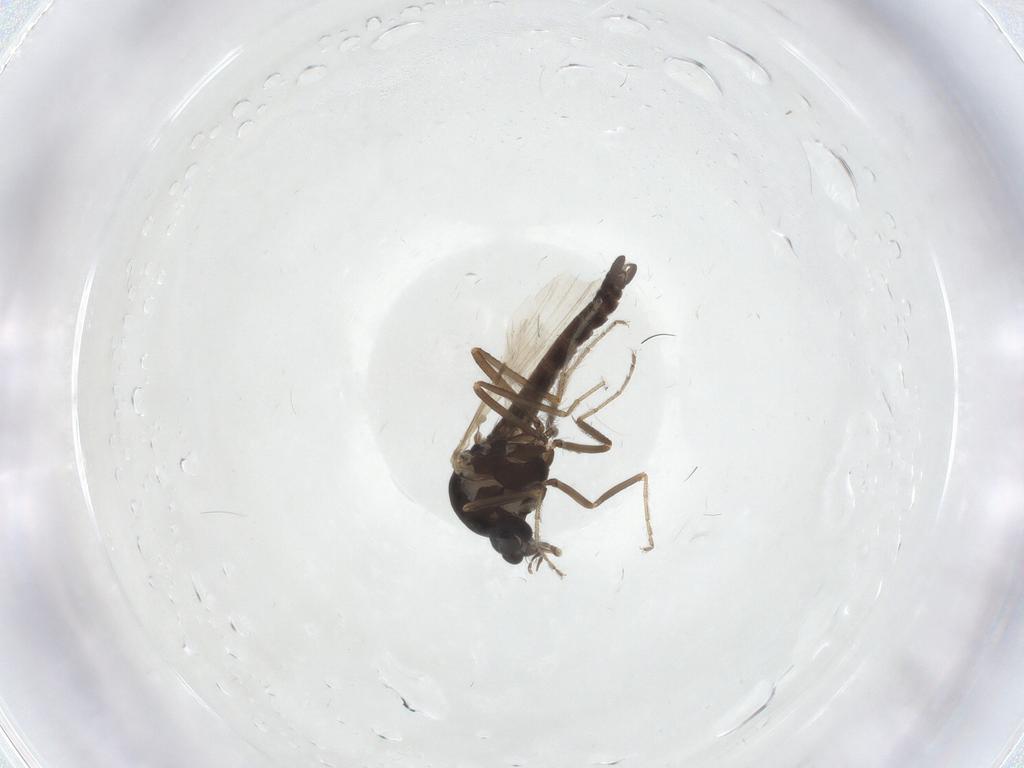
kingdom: Animalia
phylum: Arthropoda
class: Insecta
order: Diptera
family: Ceratopogonidae
